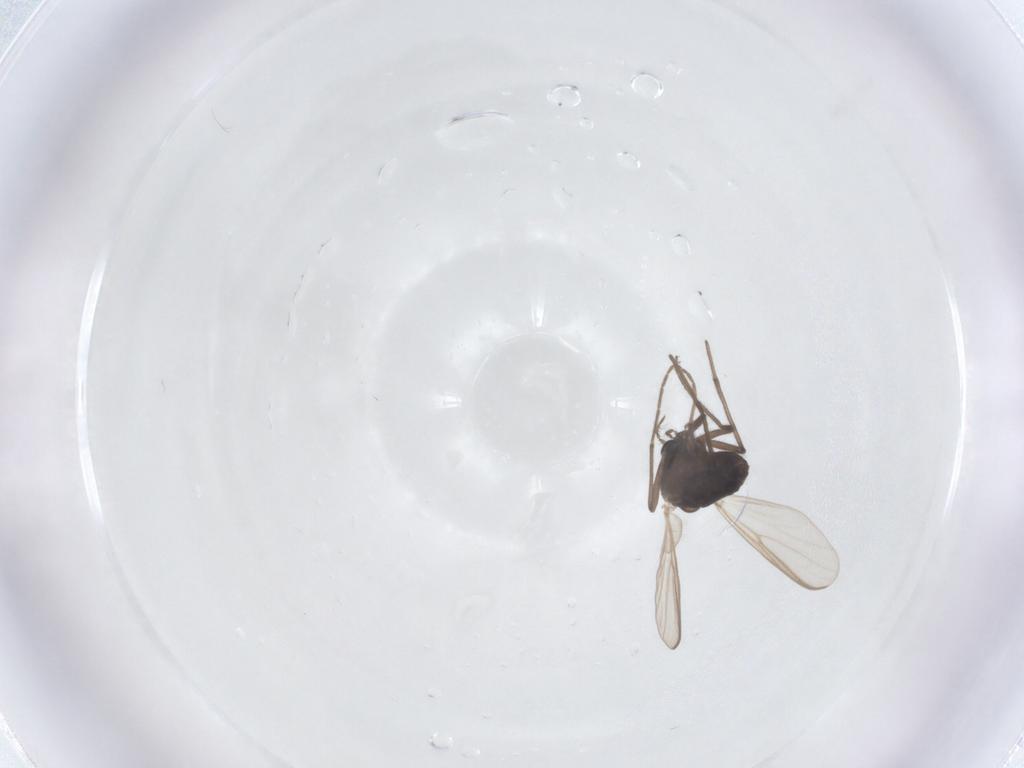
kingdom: Animalia
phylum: Arthropoda
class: Insecta
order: Diptera
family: Chironomidae
